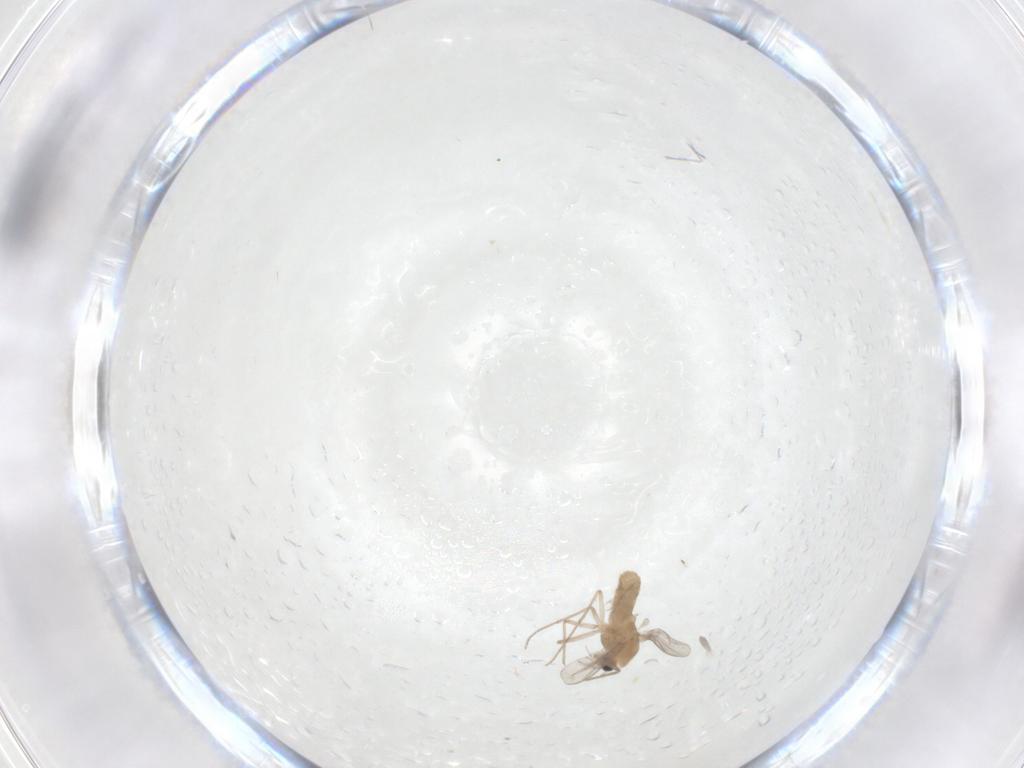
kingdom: Animalia
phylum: Arthropoda
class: Insecta
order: Diptera
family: Chironomidae
